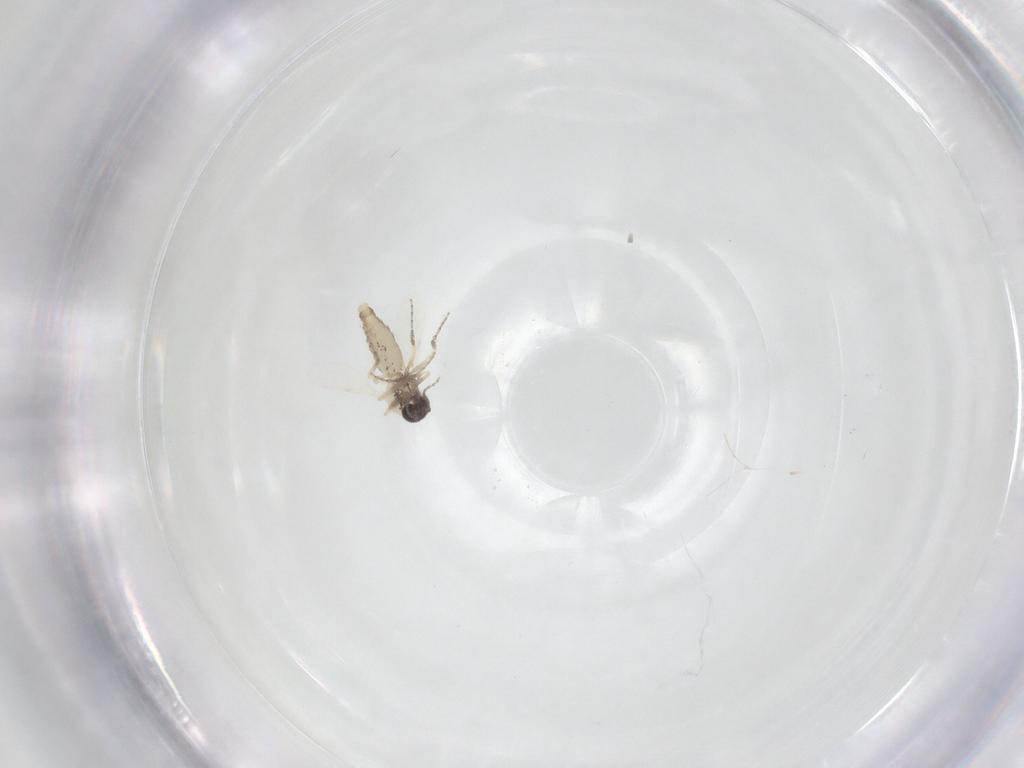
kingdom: Animalia
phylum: Arthropoda
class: Insecta
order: Diptera
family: Ceratopogonidae
